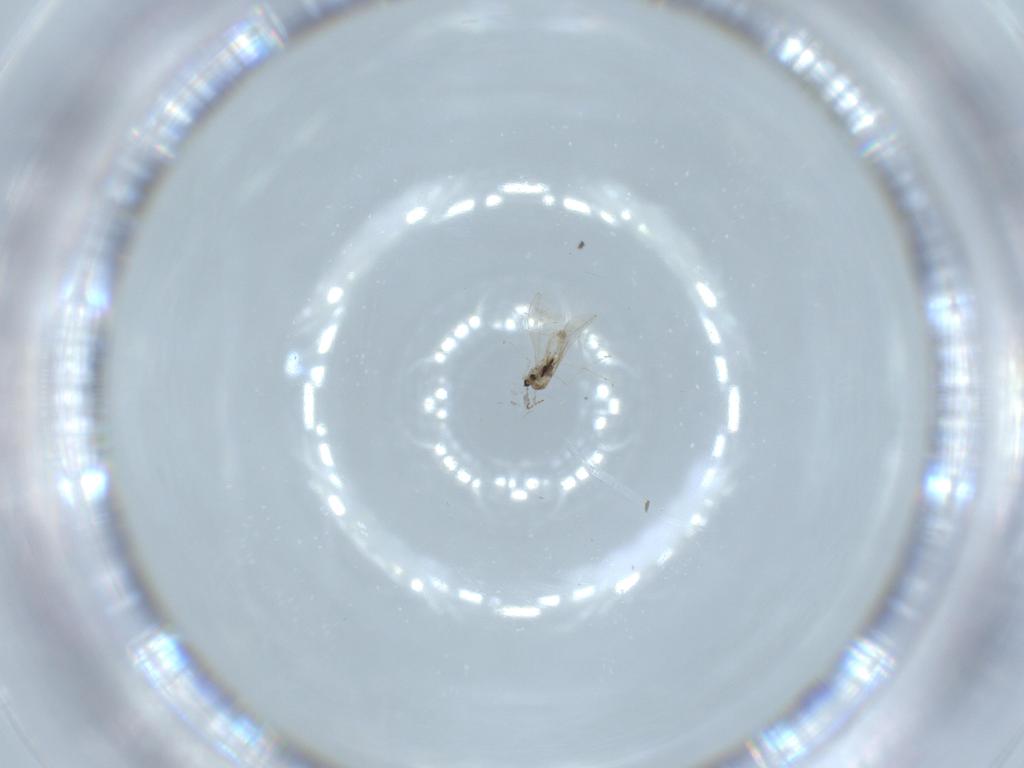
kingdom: Animalia
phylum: Arthropoda
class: Insecta
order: Diptera
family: Cecidomyiidae
